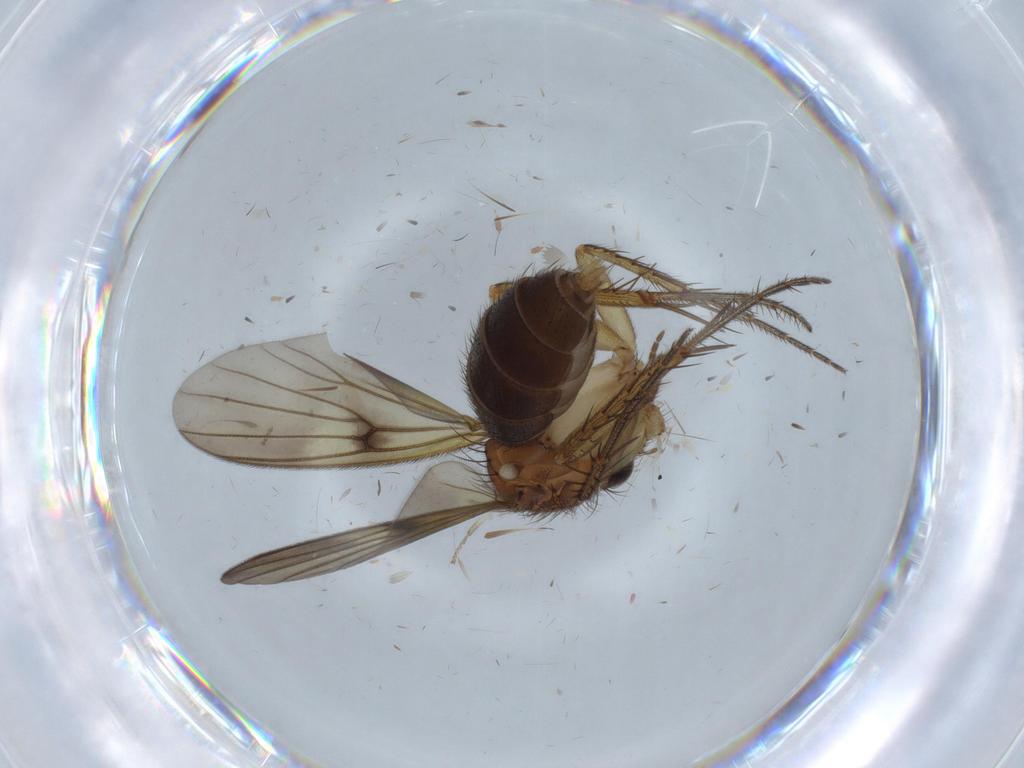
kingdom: Animalia
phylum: Arthropoda
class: Insecta
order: Diptera
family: Psychodidae
